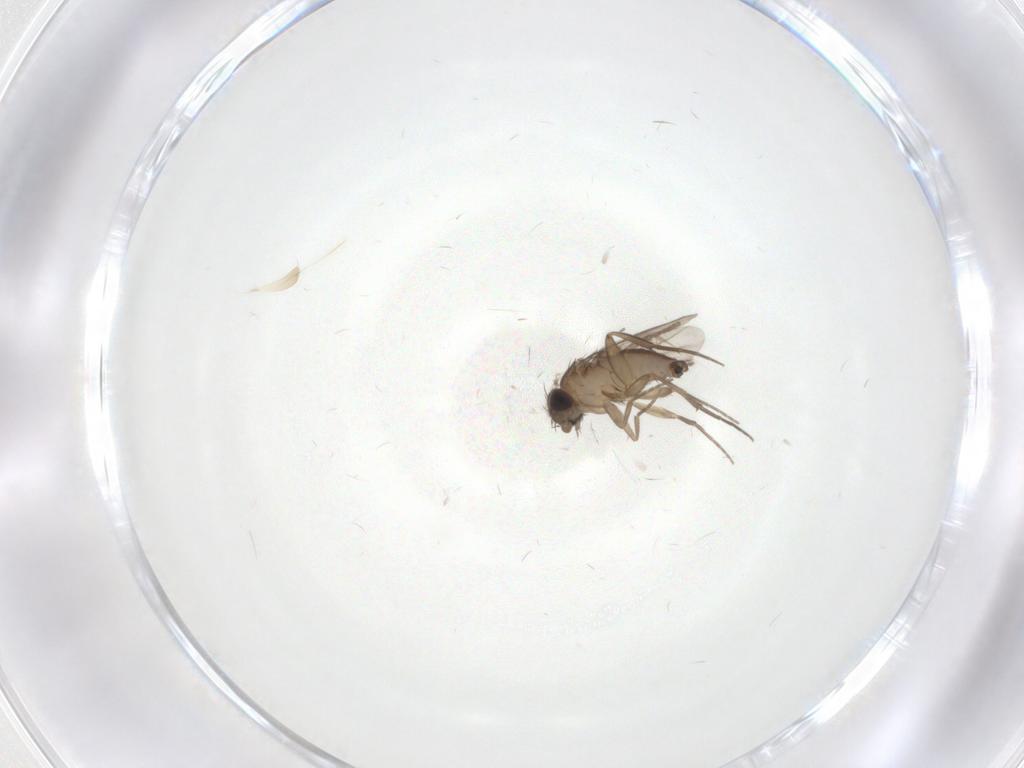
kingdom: Animalia
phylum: Arthropoda
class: Insecta
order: Diptera
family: Phoridae
